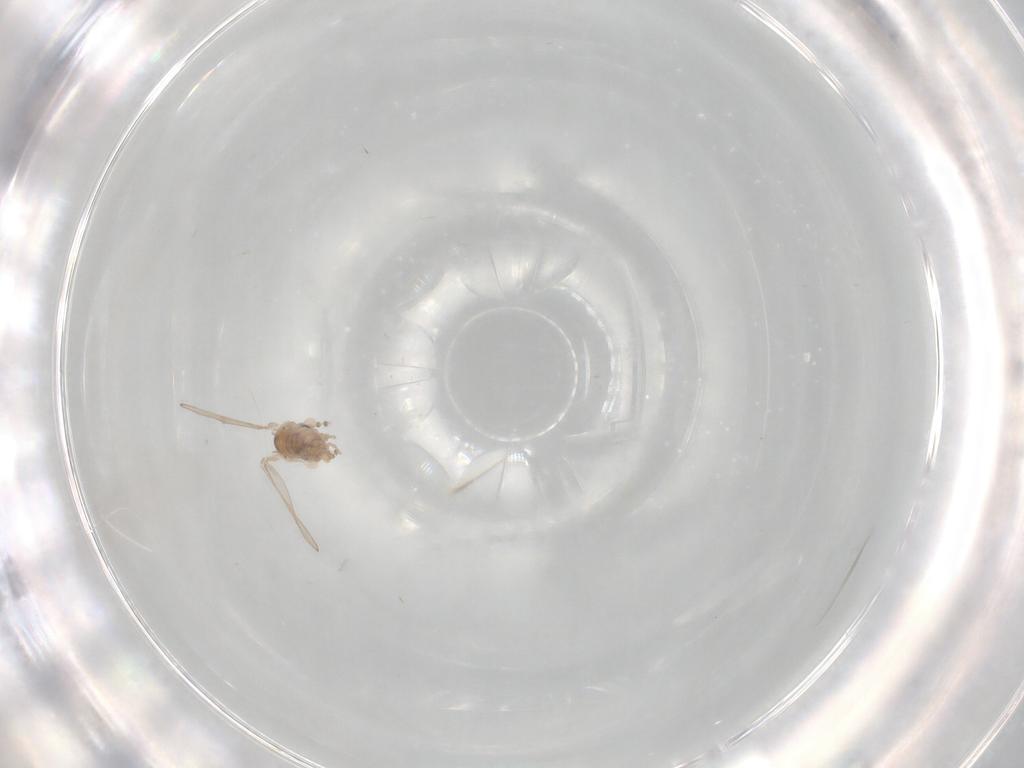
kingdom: Animalia
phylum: Arthropoda
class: Insecta
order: Diptera
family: Psychodidae
